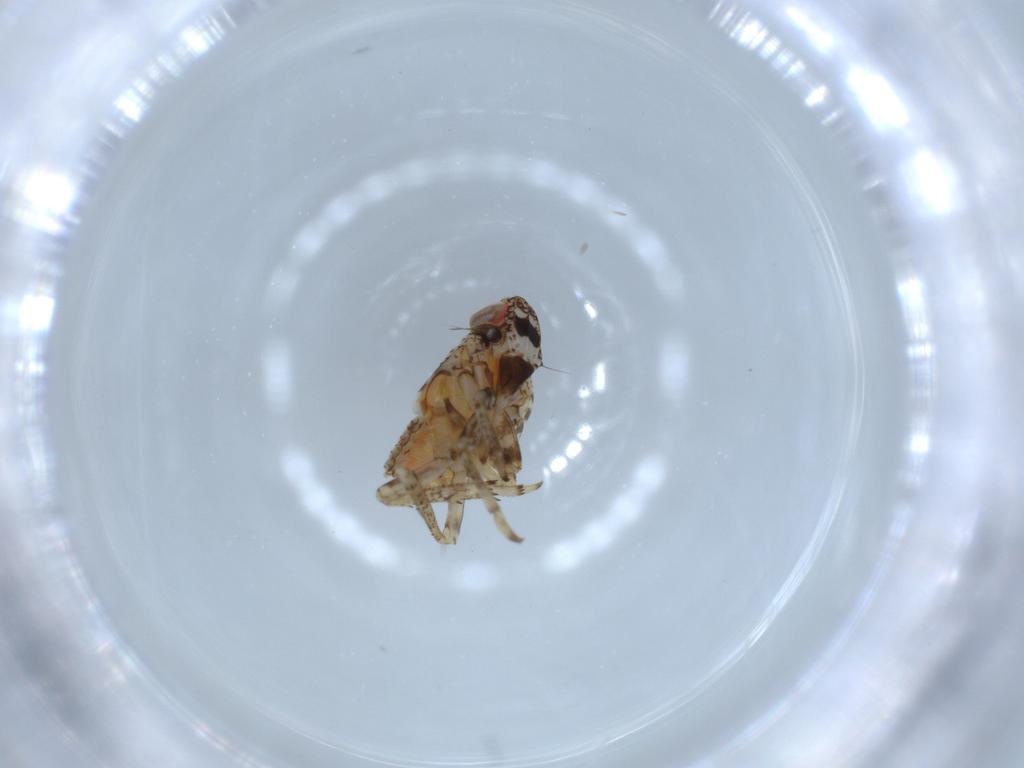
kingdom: Animalia
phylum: Arthropoda
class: Insecta
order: Hemiptera
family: Issidae
